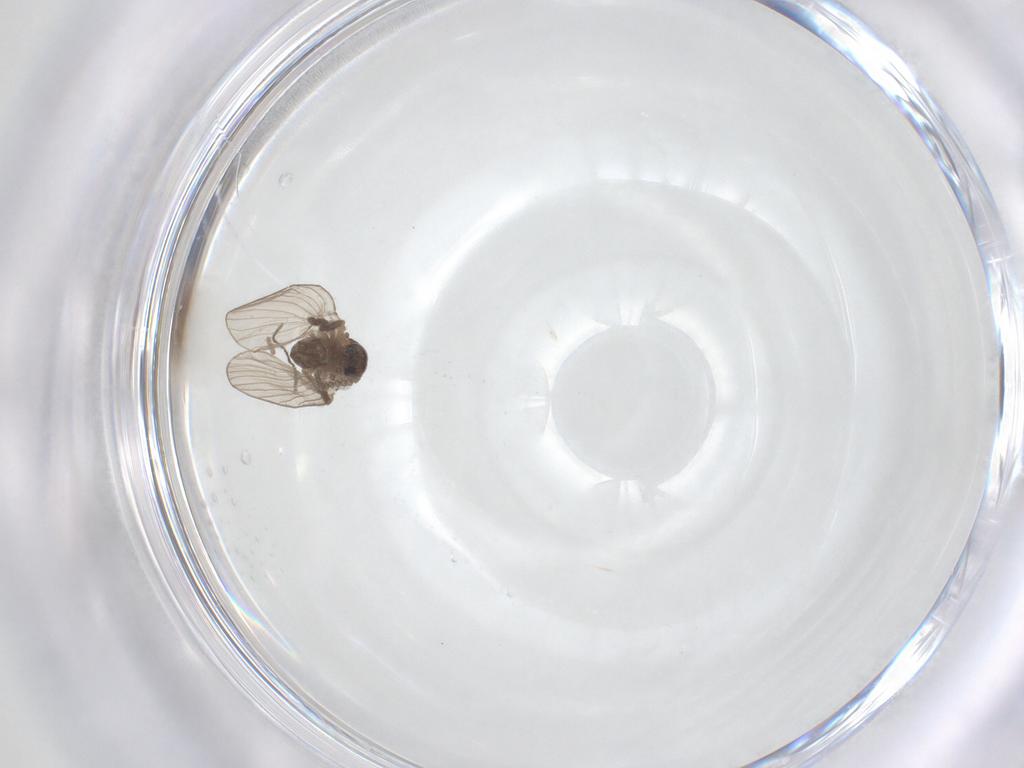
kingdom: Animalia
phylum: Arthropoda
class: Insecta
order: Diptera
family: Psychodidae
